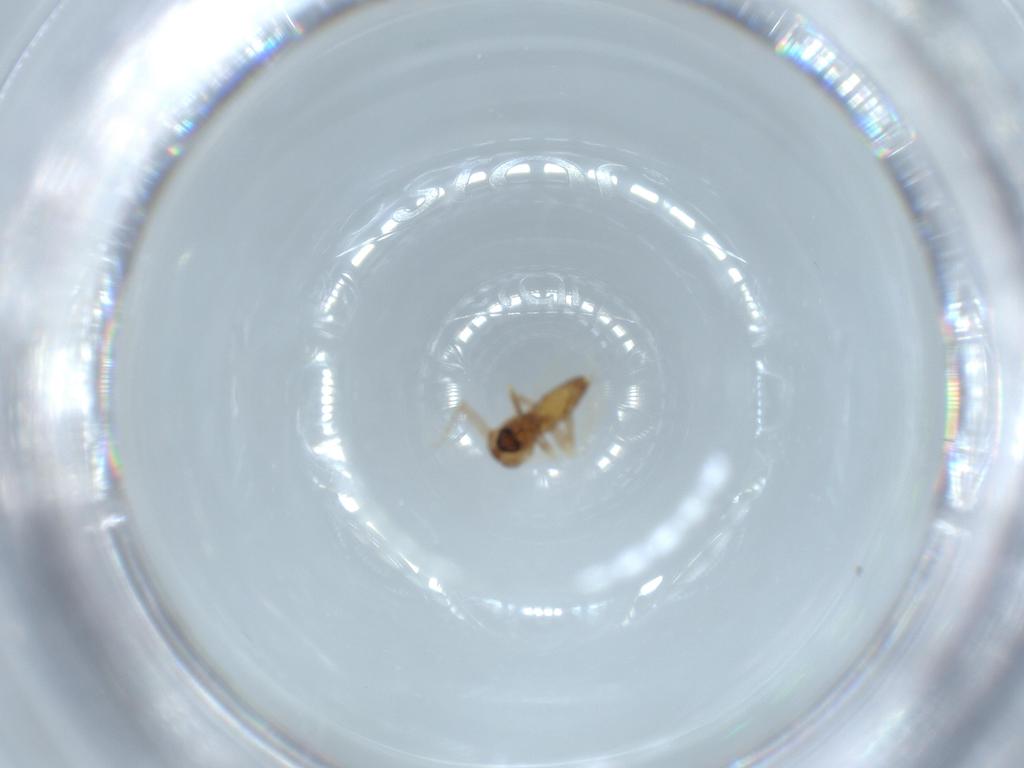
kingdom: Animalia
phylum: Arthropoda
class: Insecta
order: Diptera
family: Ceratopogonidae
